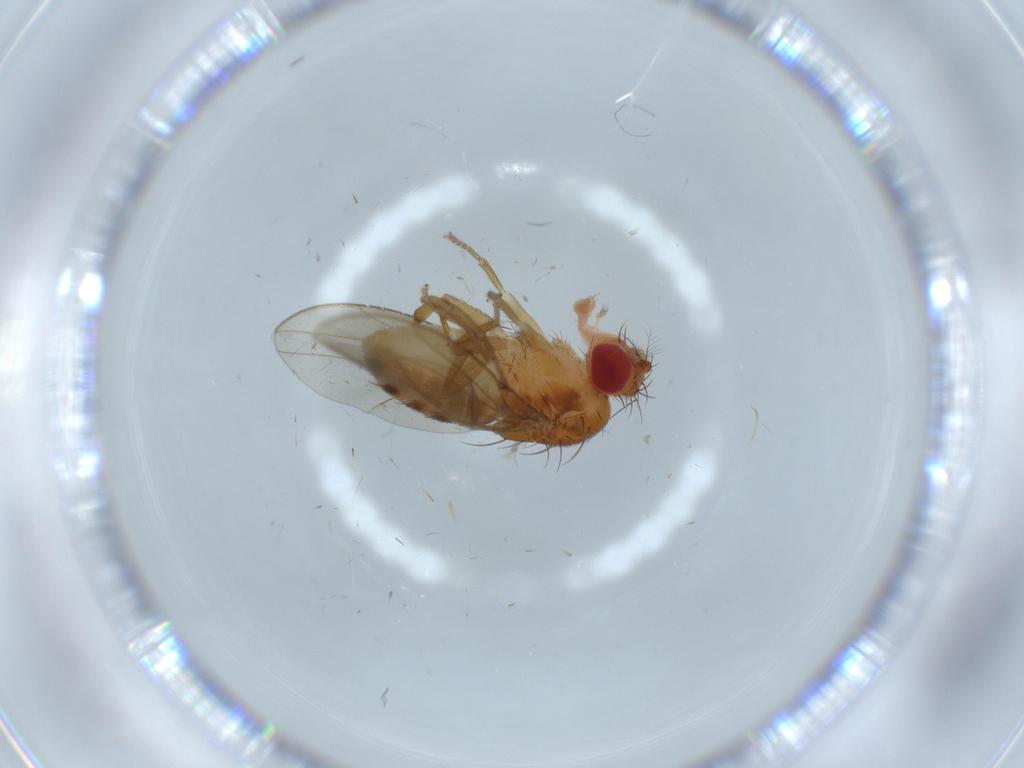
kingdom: Animalia
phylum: Arthropoda
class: Insecta
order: Diptera
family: Drosophilidae
